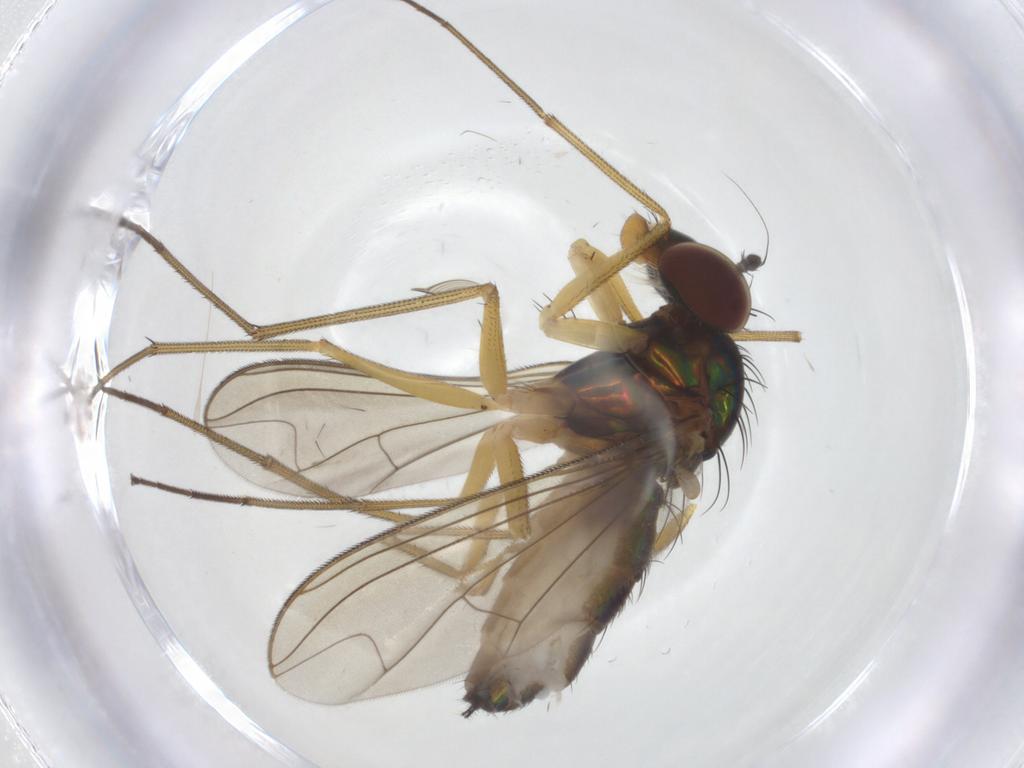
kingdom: Animalia
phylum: Arthropoda
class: Insecta
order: Diptera
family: Dolichopodidae
